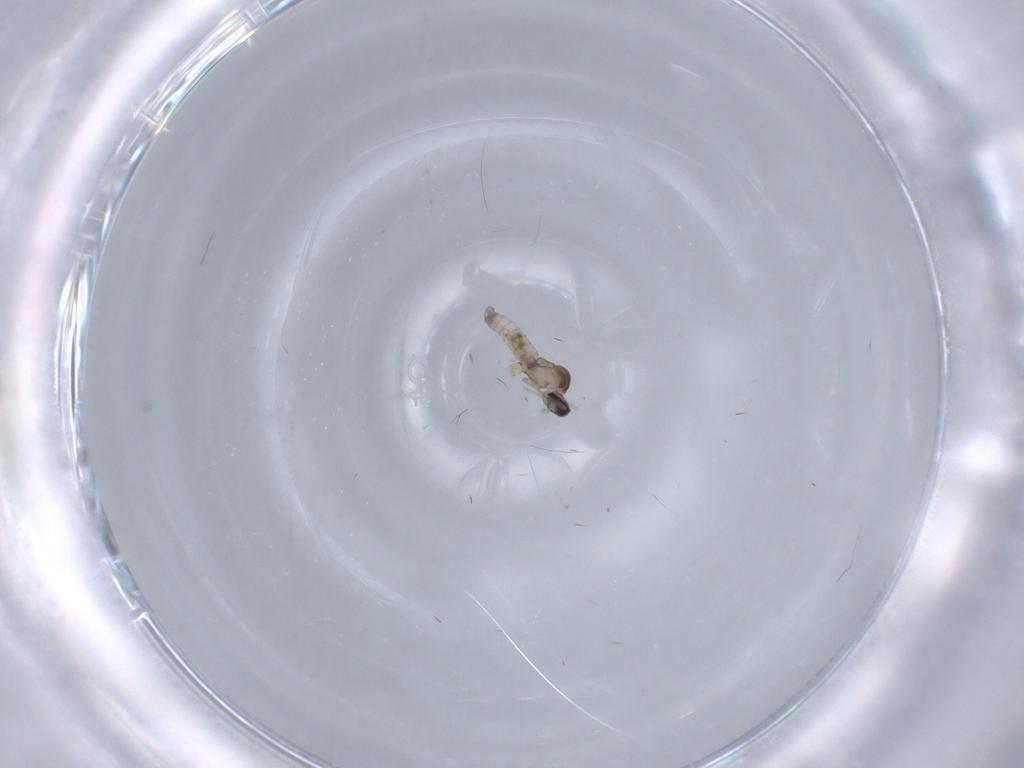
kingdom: Animalia
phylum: Arthropoda
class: Insecta
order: Diptera
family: Cecidomyiidae
